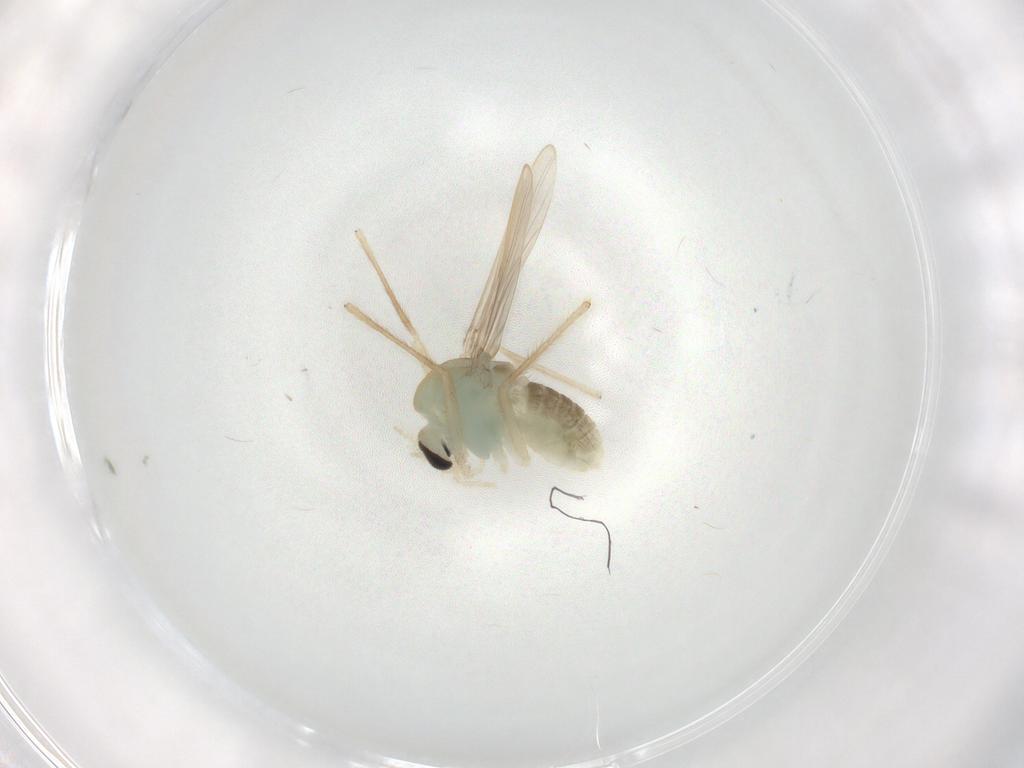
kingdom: Animalia
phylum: Arthropoda
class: Insecta
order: Diptera
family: Chironomidae
